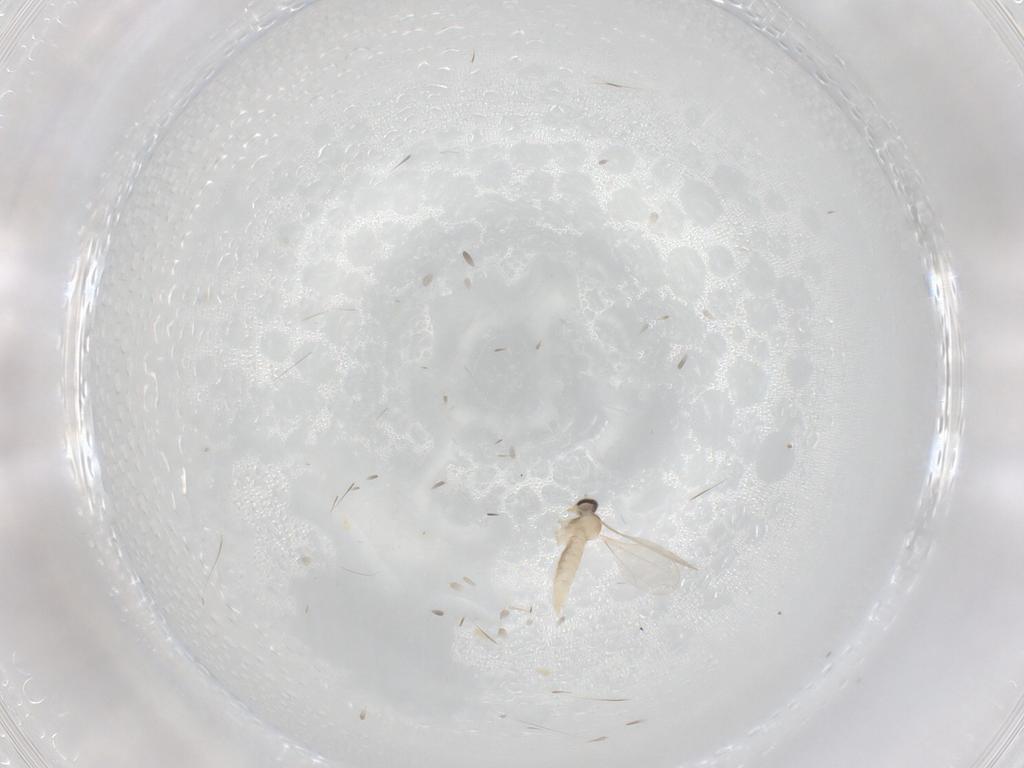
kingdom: Animalia
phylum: Arthropoda
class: Insecta
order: Diptera
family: Cecidomyiidae
